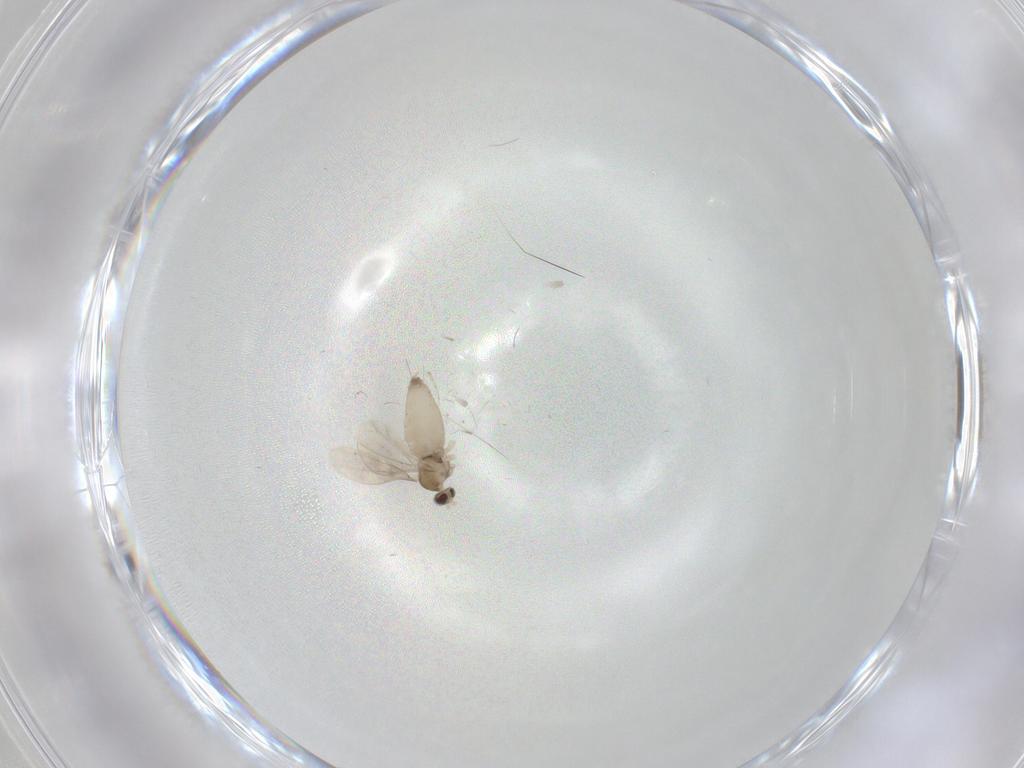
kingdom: Animalia
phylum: Arthropoda
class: Insecta
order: Diptera
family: Cecidomyiidae
